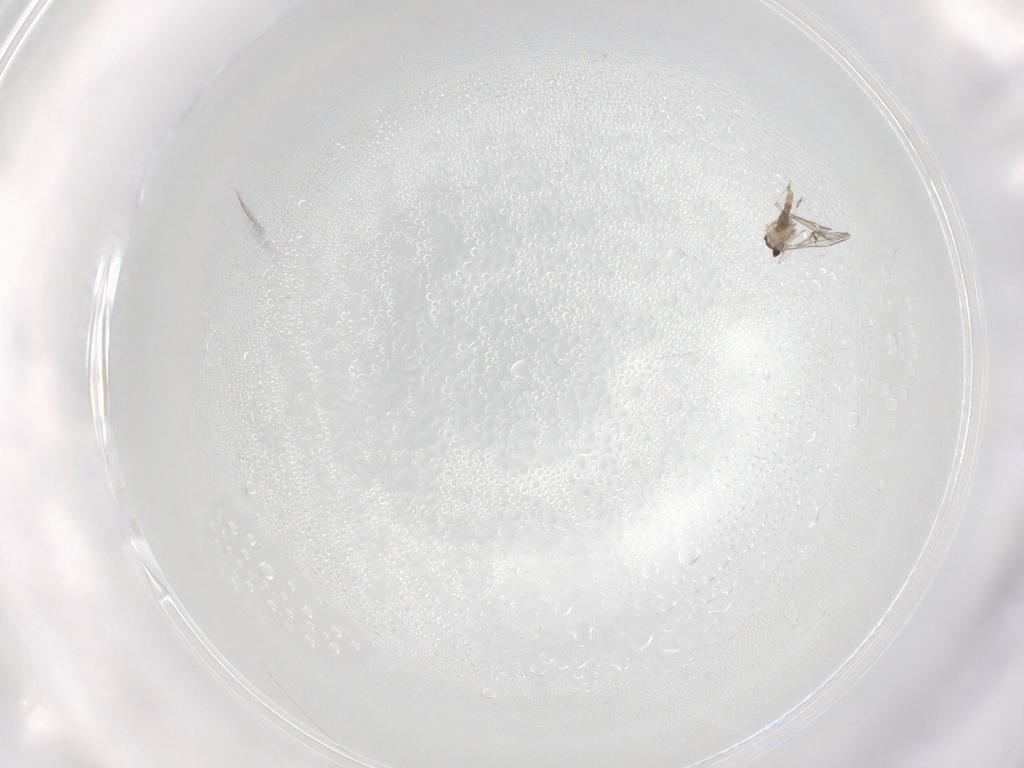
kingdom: Animalia
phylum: Arthropoda
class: Insecta
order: Diptera
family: Cecidomyiidae
